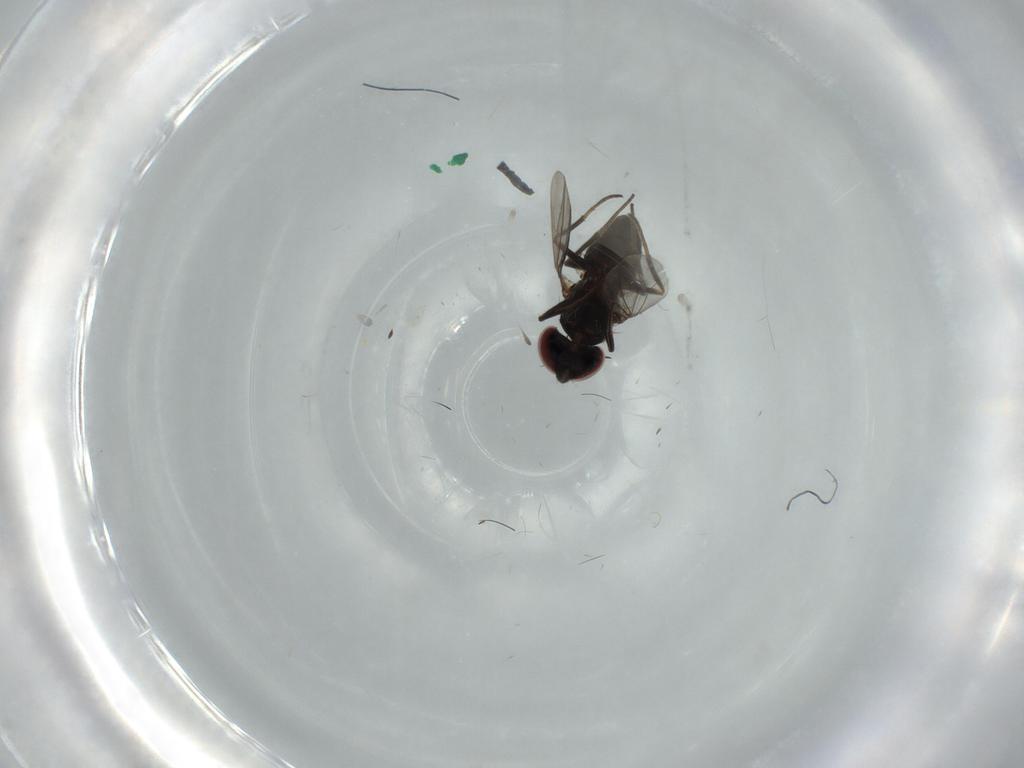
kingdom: Animalia
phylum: Arthropoda
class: Insecta
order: Diptera
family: Dolichopodidae
